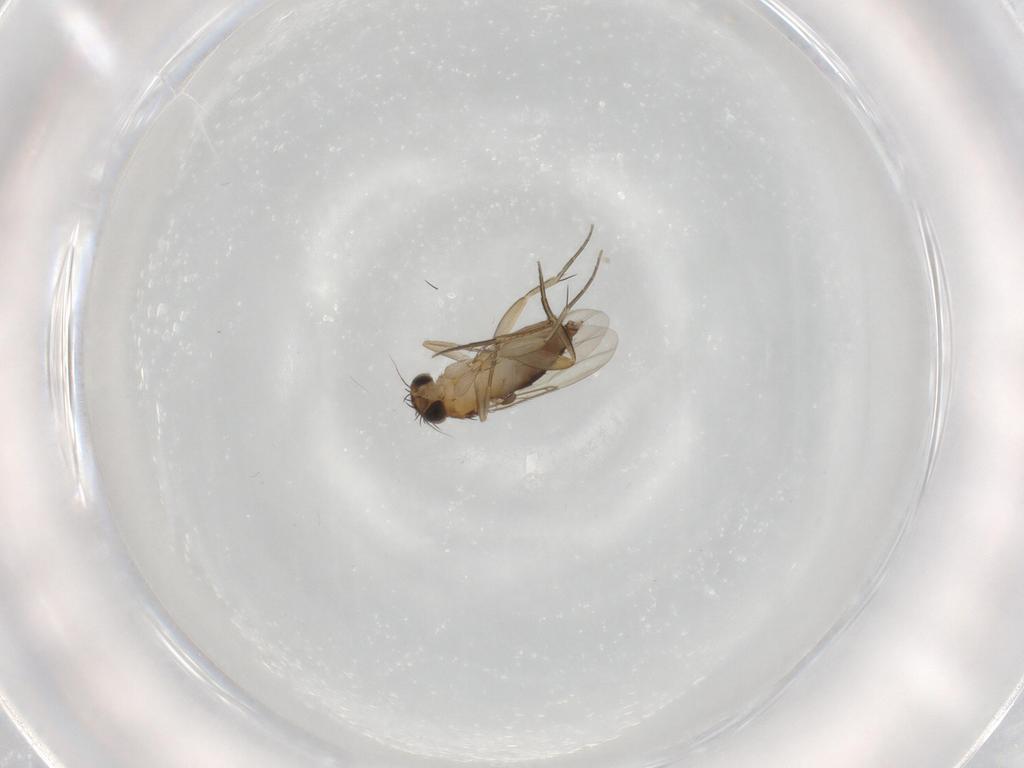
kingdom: Animalia
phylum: Arthropoda
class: Insecta
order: Diptera
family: Phoridae
